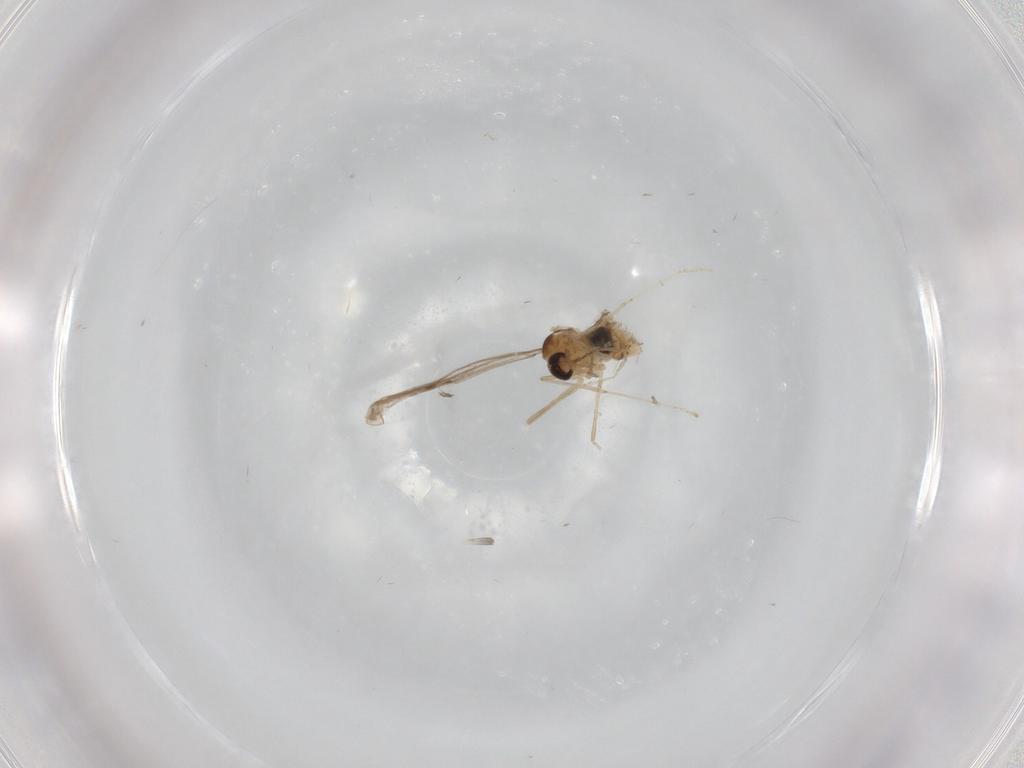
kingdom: Animalia
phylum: Arthropoda
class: Insecta
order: Diptera
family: Cecidomyiidae
